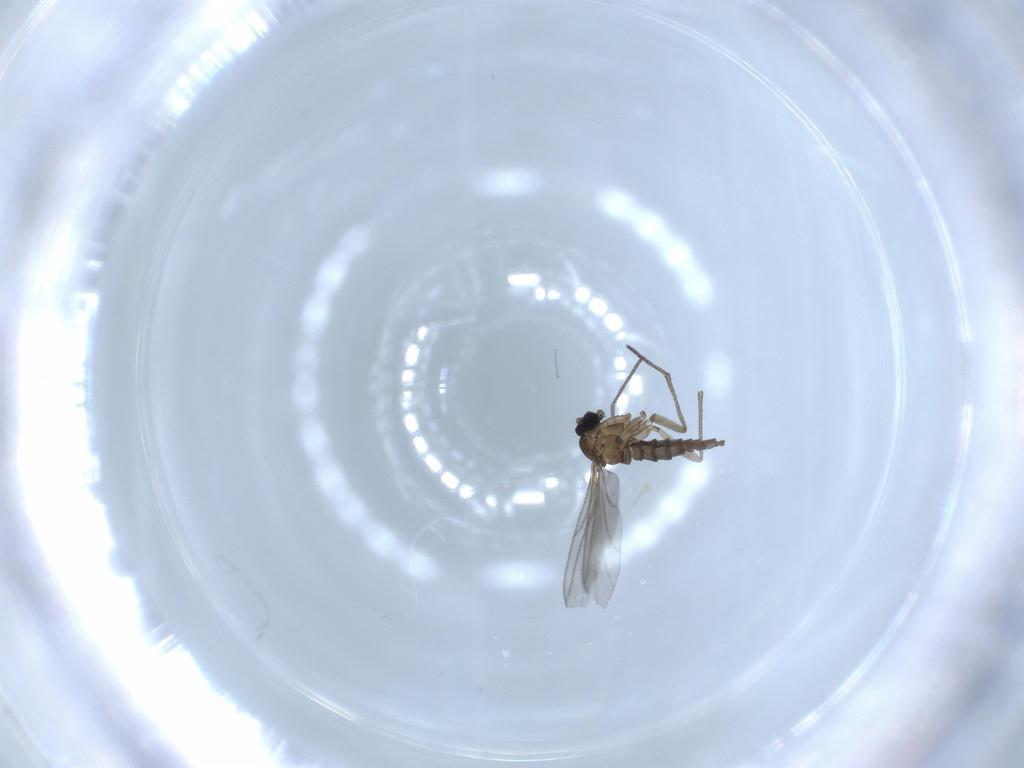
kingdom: Animalia
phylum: Arthropoda
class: Insecta
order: Diptera
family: Sciaridae
